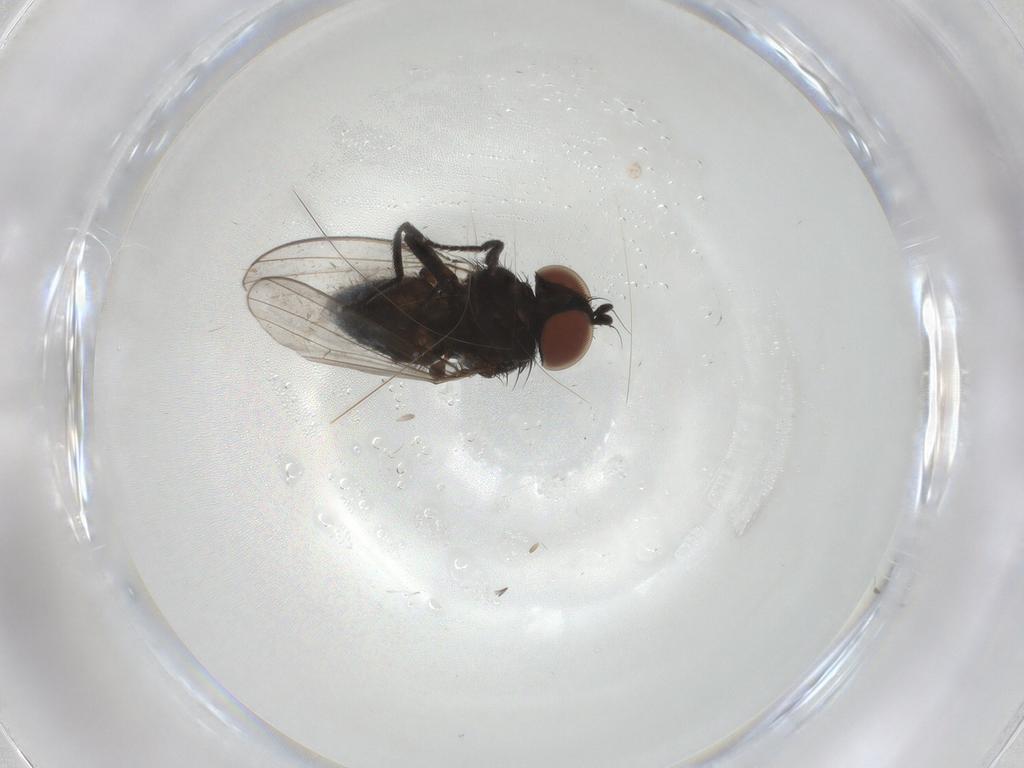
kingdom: Animalia
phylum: Arthropoda
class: Insecta
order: Diptera
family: Milichiidae
